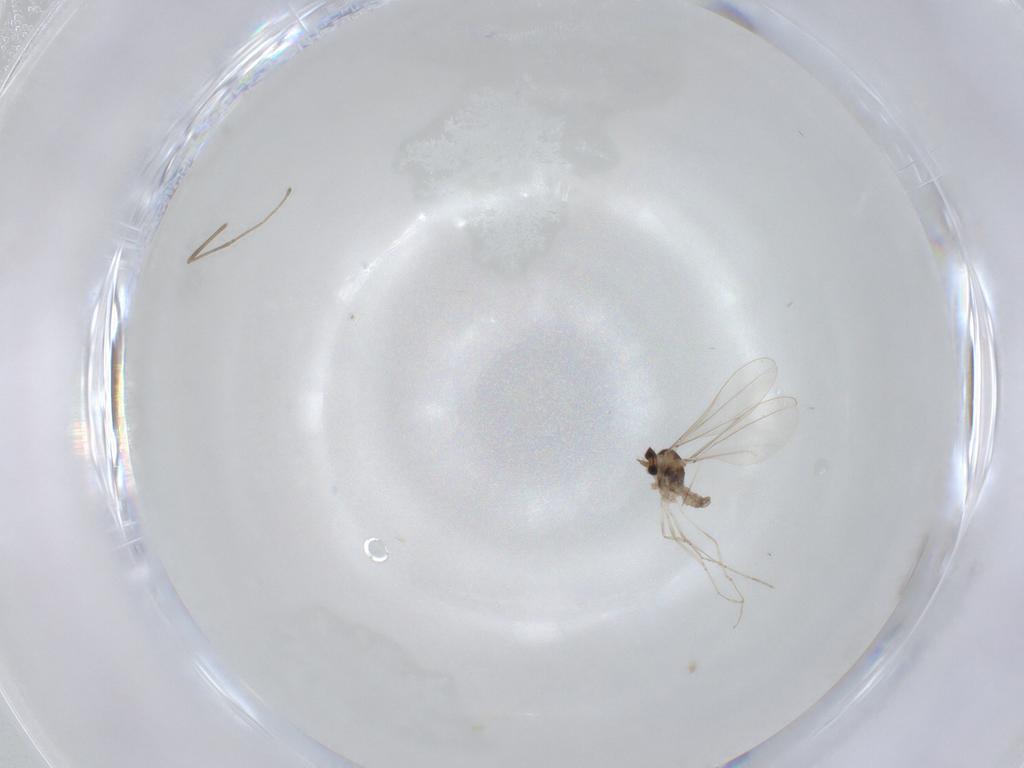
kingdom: Animalia
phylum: Arthropoda
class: Insecta
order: Diptera
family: Cecidomyiidae
